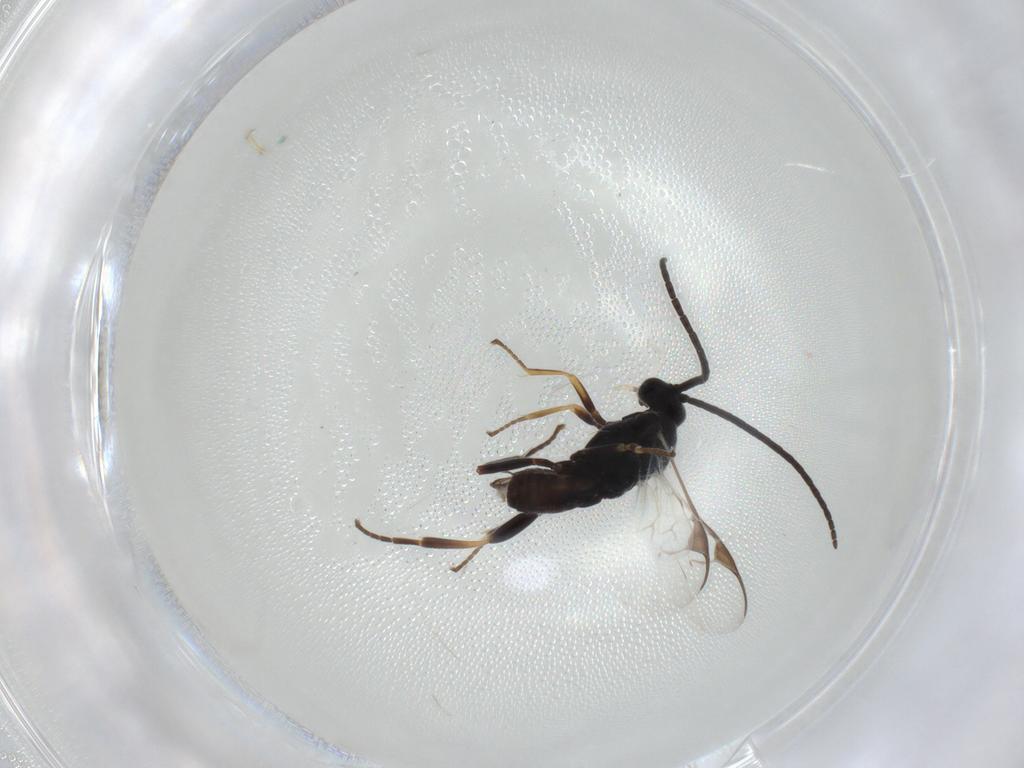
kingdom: Animalia
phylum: Arthropoda
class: Insecta
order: Hymenoptera
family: Braconidae
